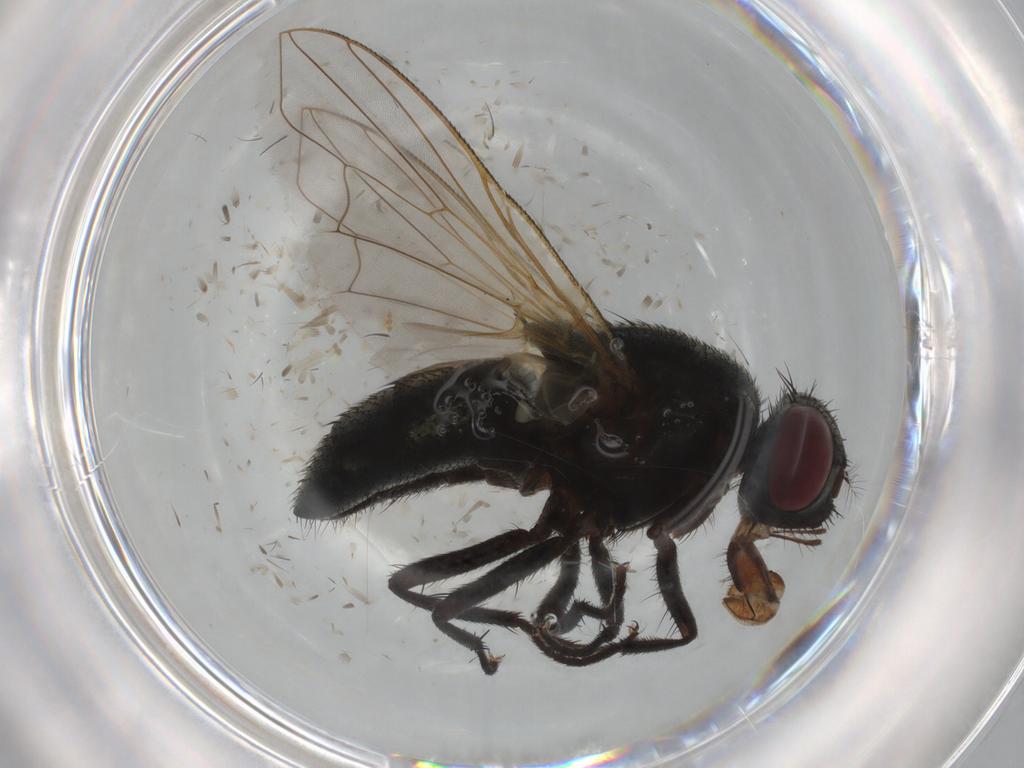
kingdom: Animalia
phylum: Arthropoda
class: Insecta
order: Diptera
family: Muscidae
